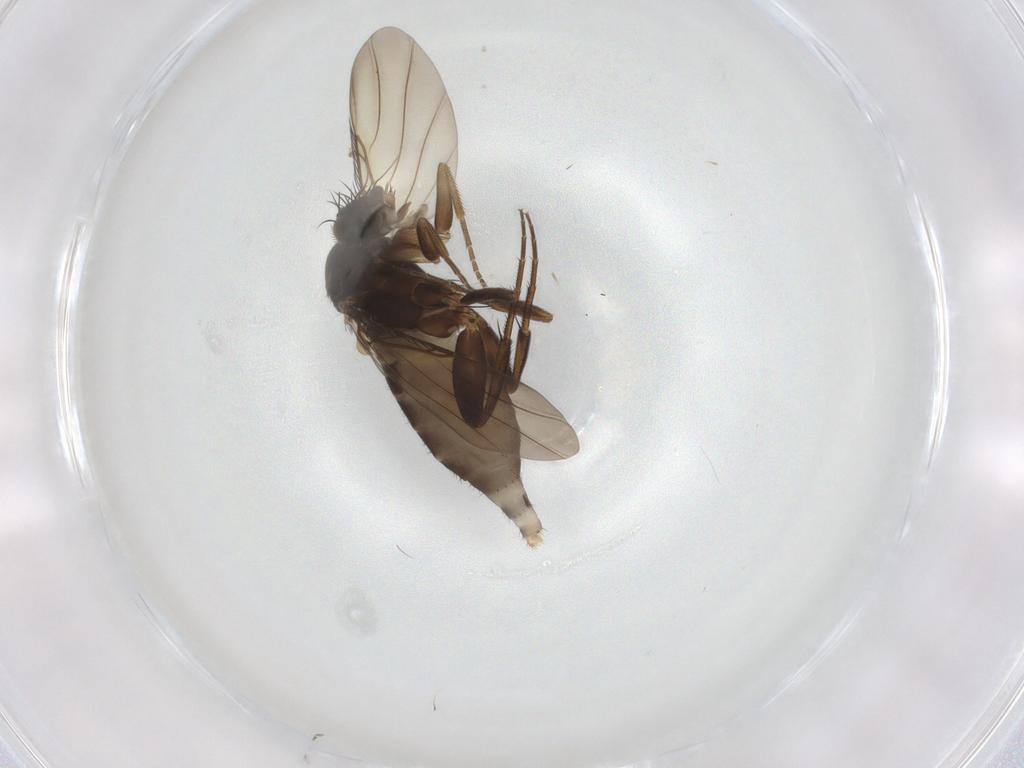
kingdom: Animalia
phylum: Arthropoda
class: Insecta
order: Diptera
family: Phoridae
